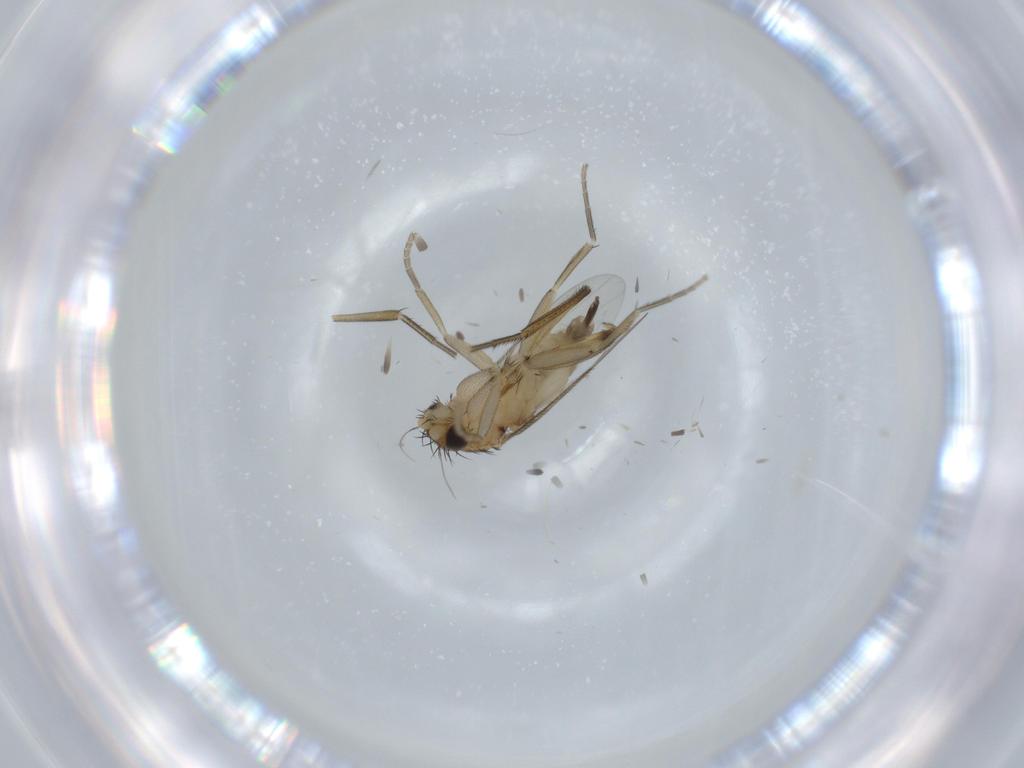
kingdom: Animalia
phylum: Arthropoda
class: Insecta
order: Diptera
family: Phoridae
